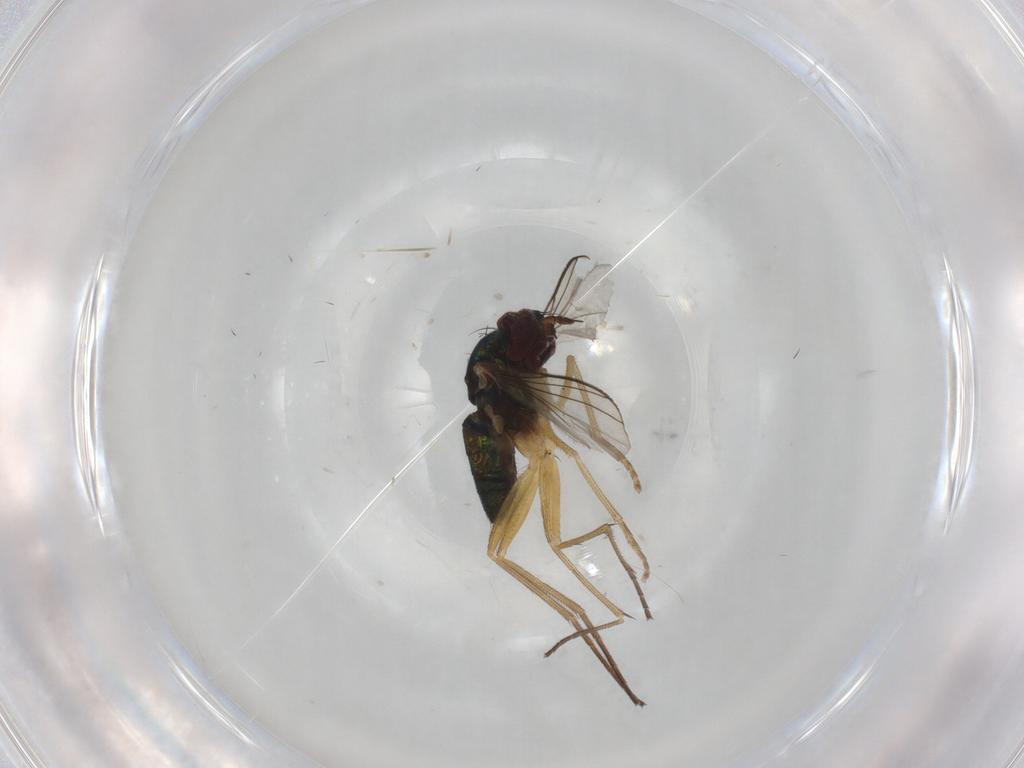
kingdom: Animalia
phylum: Arthropoda
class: Insecta
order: Diptera
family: Dolichopodidae
